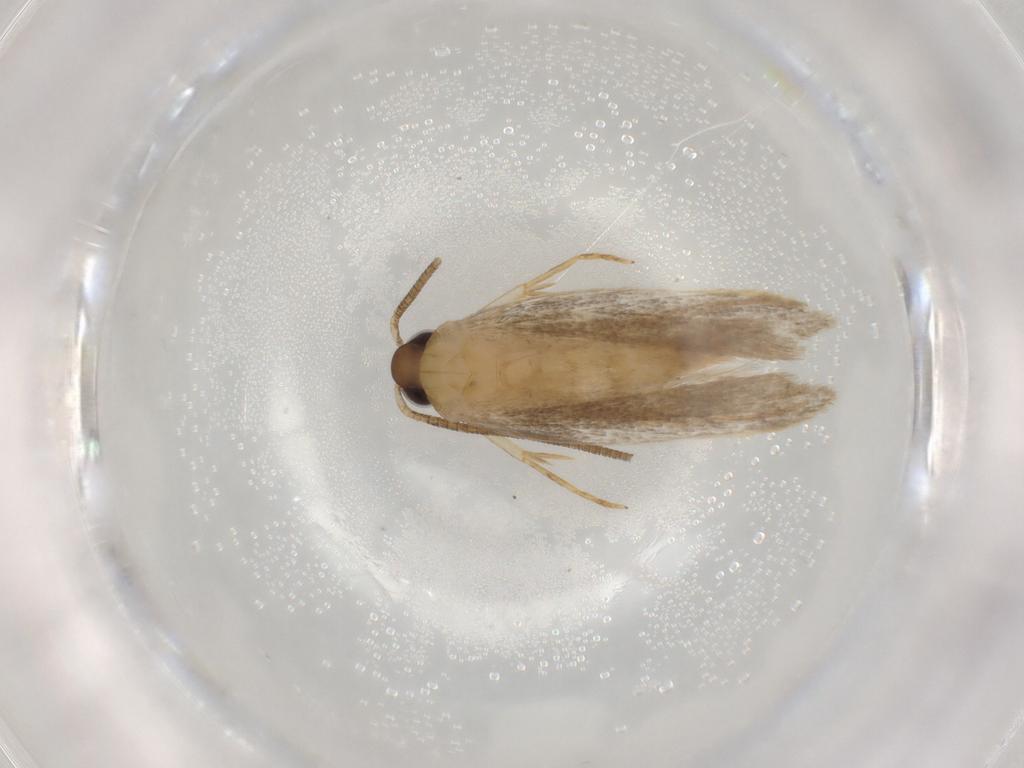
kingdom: Animalia
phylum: Arthropoda
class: Insecta
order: Lepidoptera
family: Autostichidae
